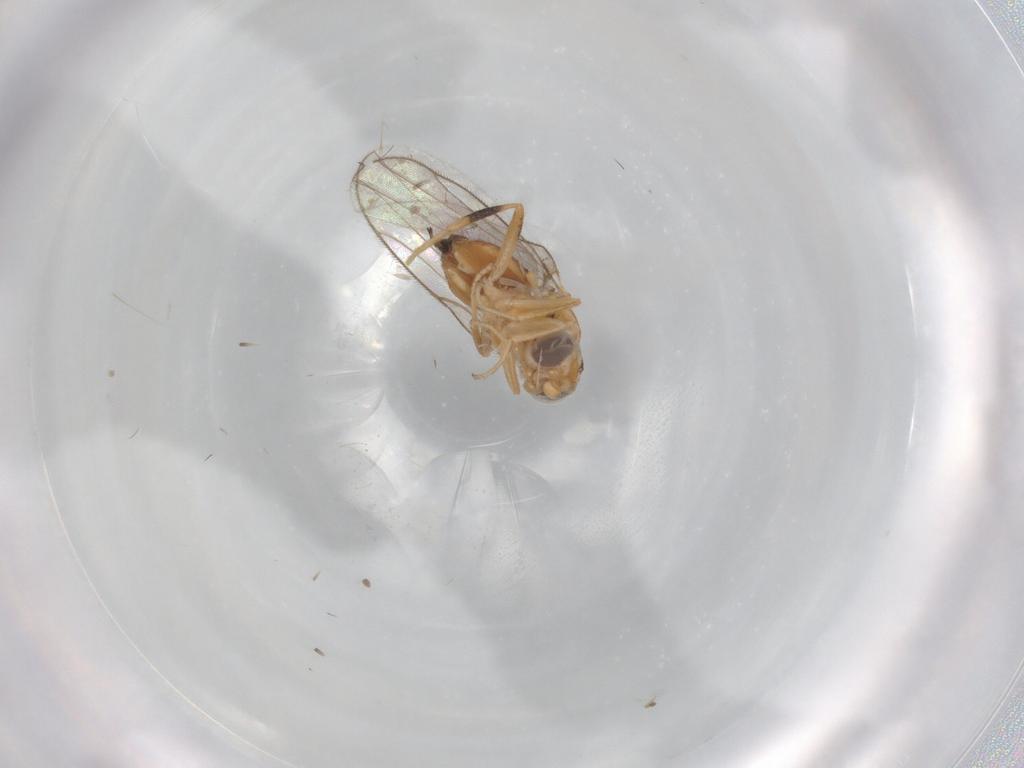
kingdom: Animalia
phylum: Arthropoda
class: Insecta
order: Diptera
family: Chloropidae
